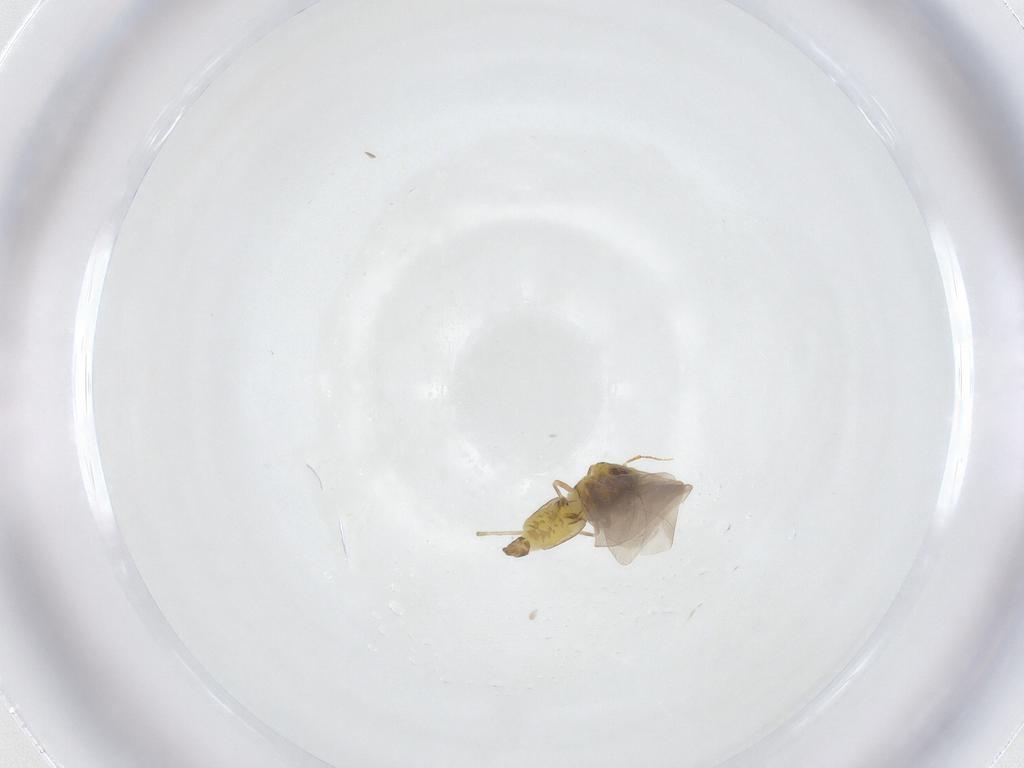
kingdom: Animalia
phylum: Arthropoda
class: Insecta
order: Hemiptera
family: Aleyrodidae
